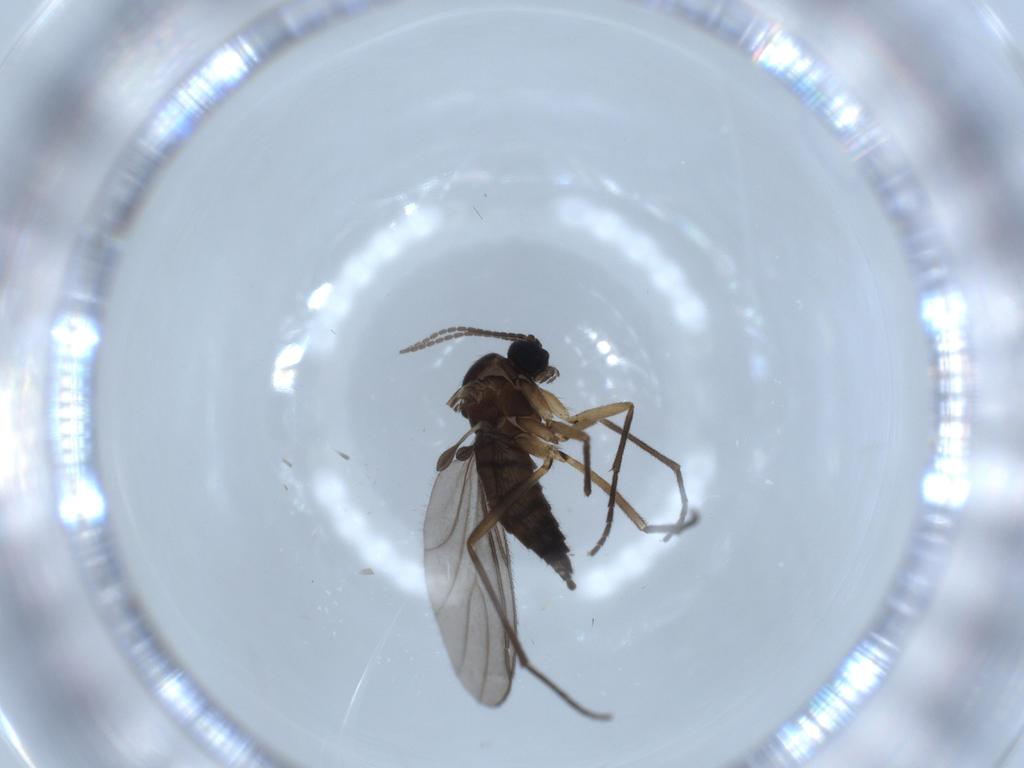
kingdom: Animalia
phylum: Arthropoda
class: Insecta
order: Diptera
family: Sciaridae
